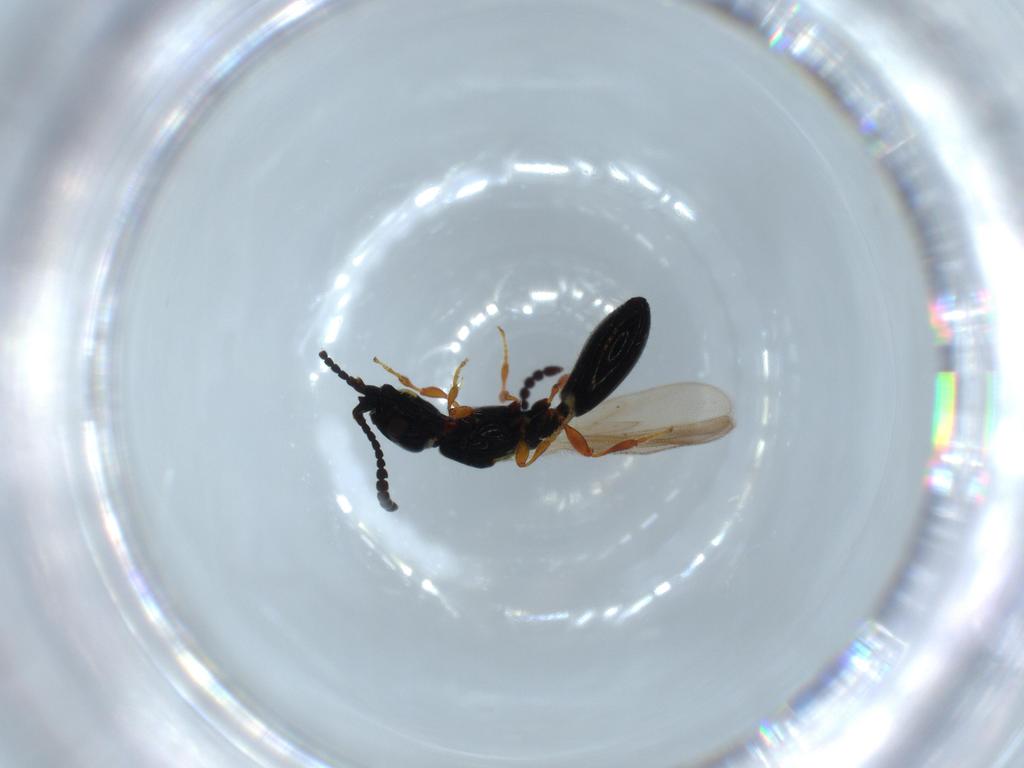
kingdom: Animalia
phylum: Arthropoda
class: Insecta
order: Hymenoptera
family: Diapriidae
